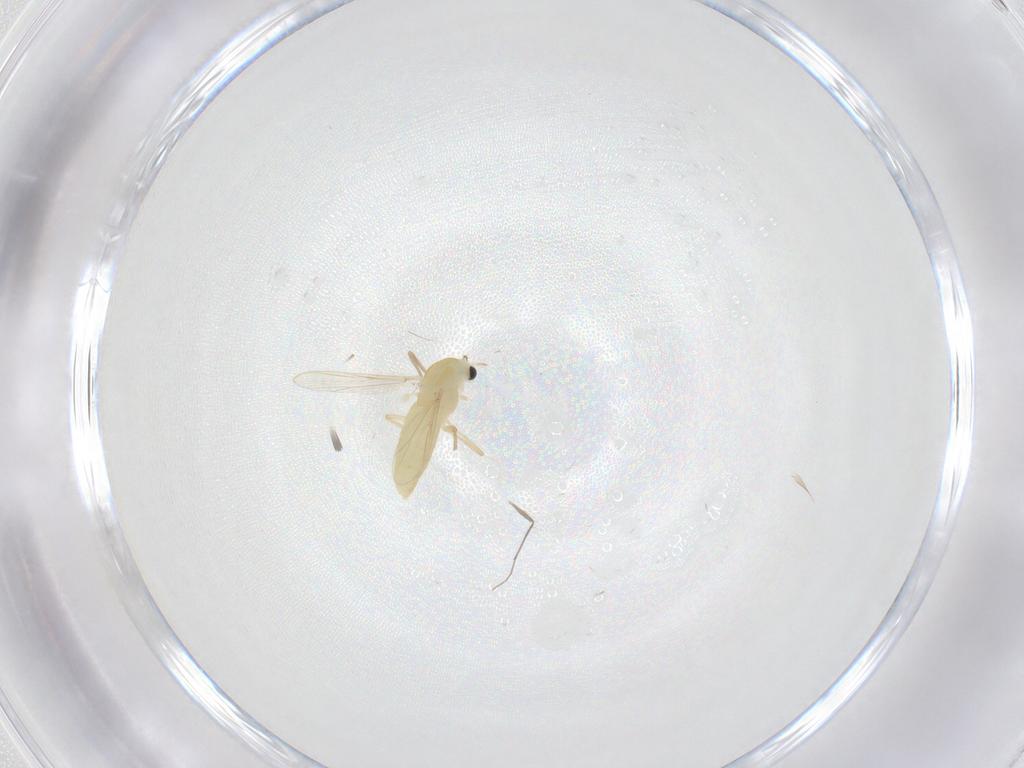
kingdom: Animalia
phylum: Arthropoda
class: Insecta
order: Diptera
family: Chironomidae
